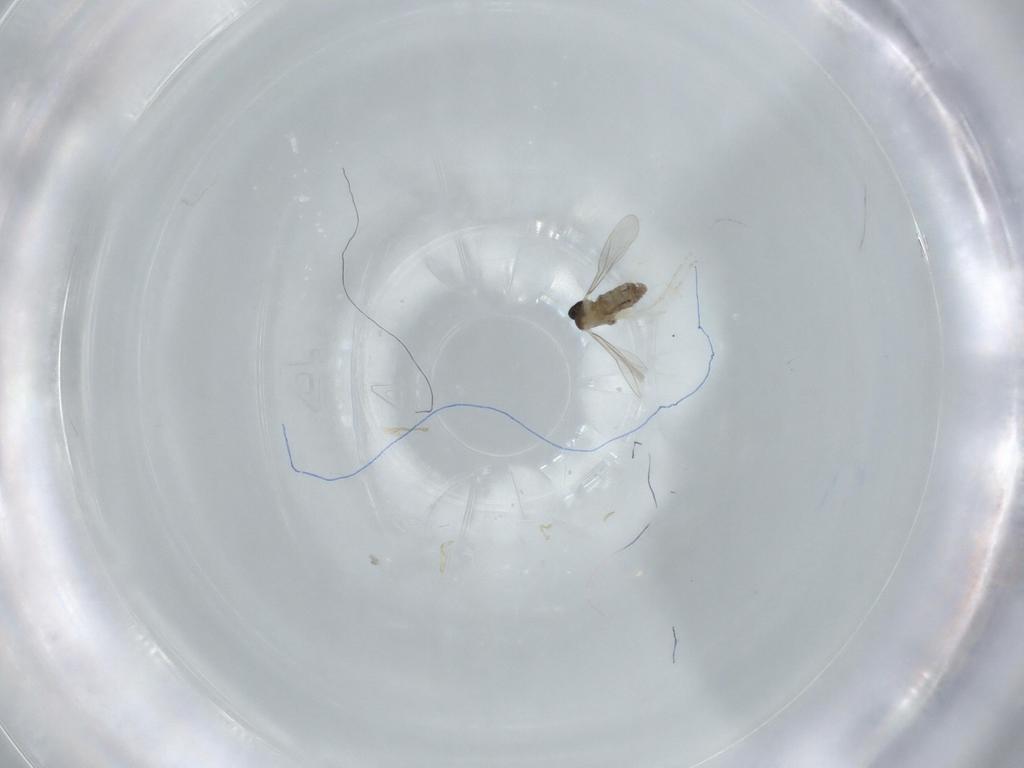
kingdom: Animalia
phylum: Arthropoda
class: Insecta
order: Diptera
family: Cecidomyiidae
